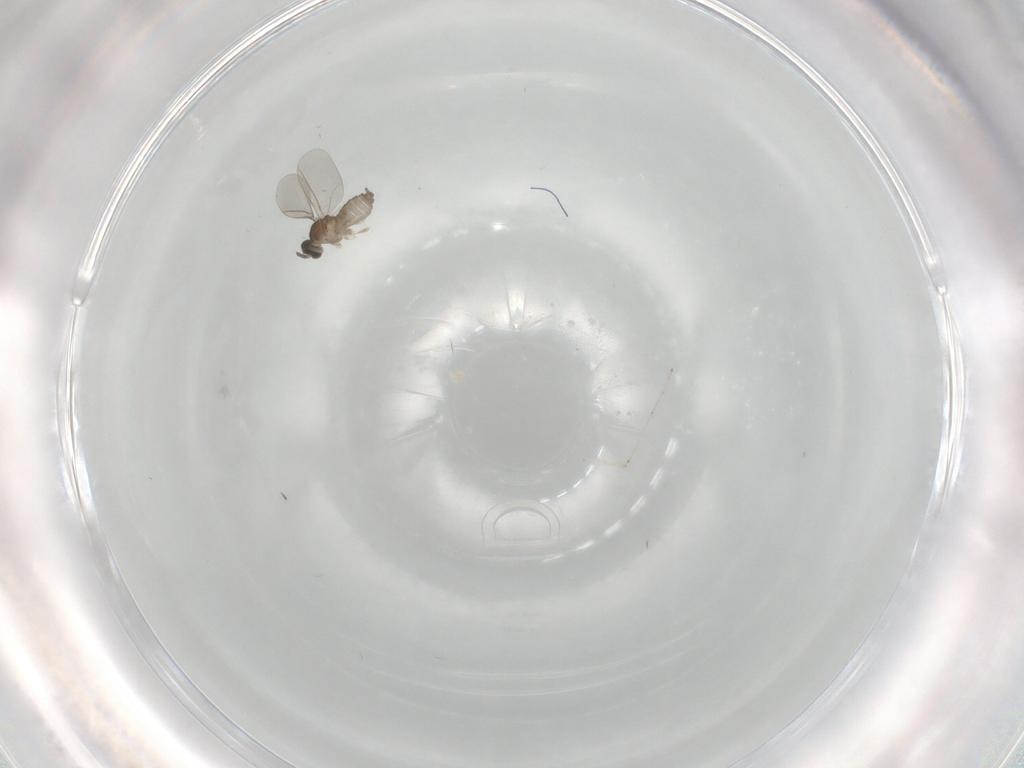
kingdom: Animalia
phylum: Arthropoda
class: Insecta
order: Diptera
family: Cecidomyiidae
